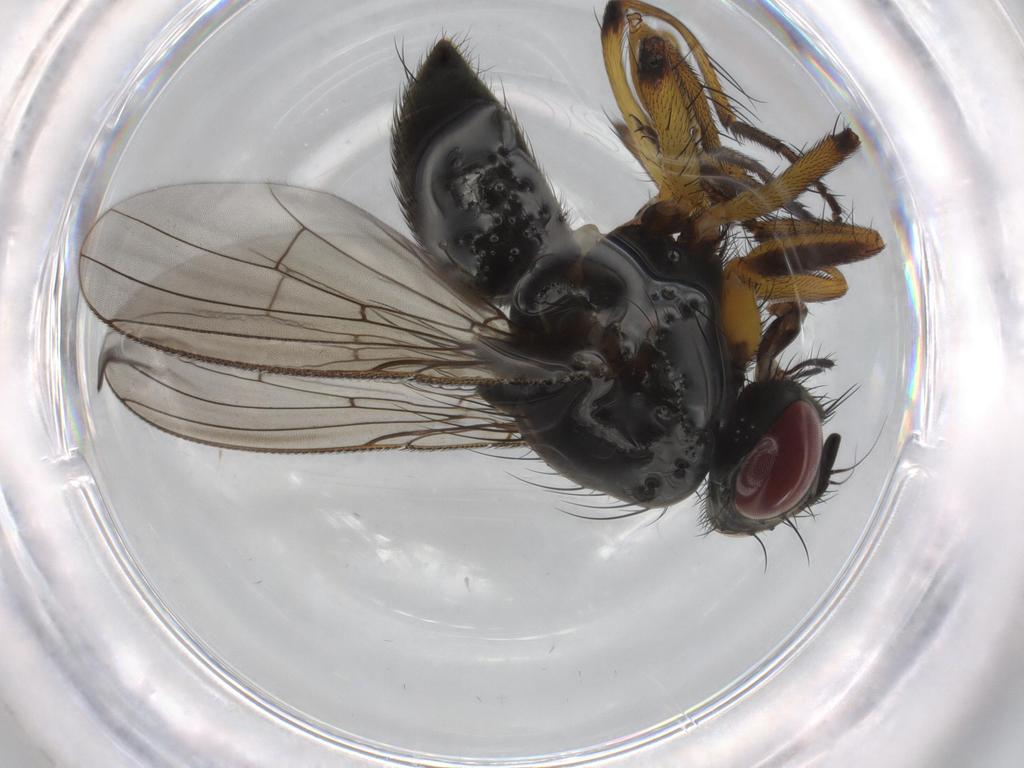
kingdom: Animalia
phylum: Arthropoda
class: Insecta
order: Diptera
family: Muscidae
